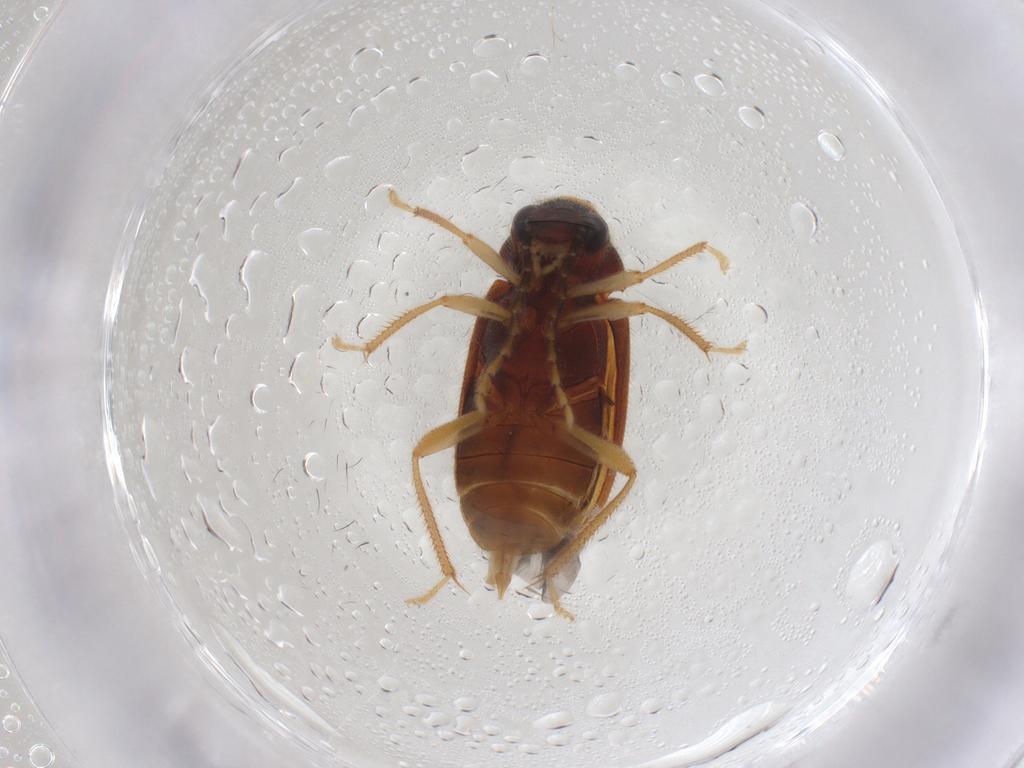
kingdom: Animalia
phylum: Arthropoda
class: Insecta
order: Coleoptera
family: Ptilodactylidae
